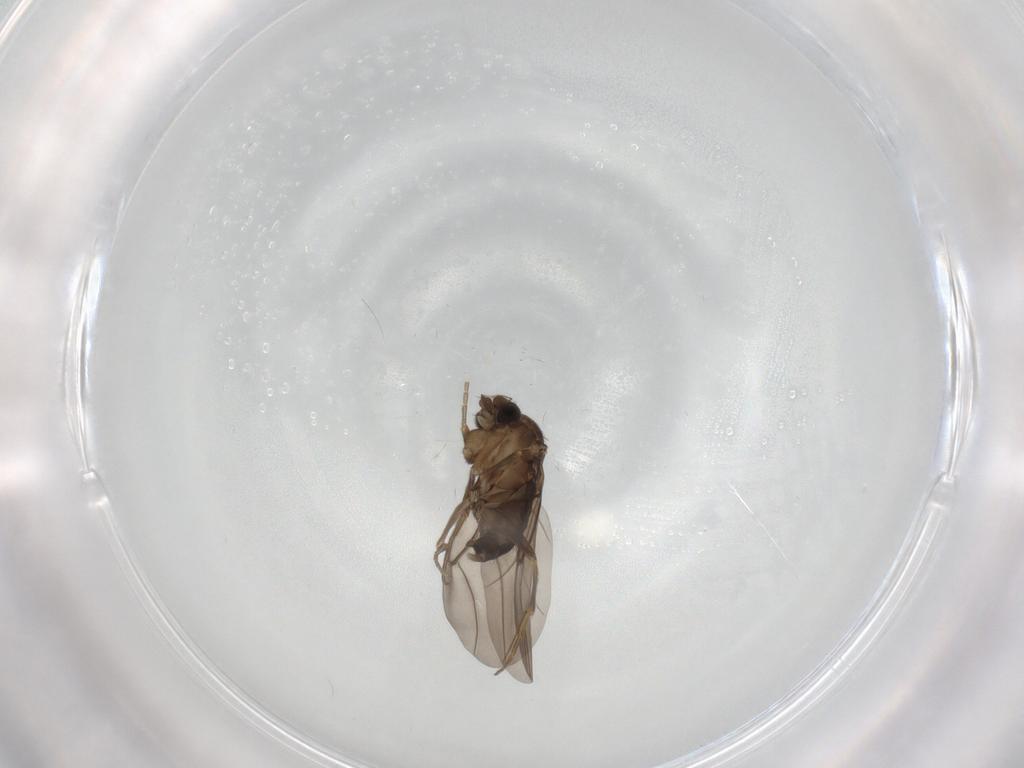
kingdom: Animalia
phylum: Arthropoda
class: Insecta
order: Diptera
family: Phoridae
